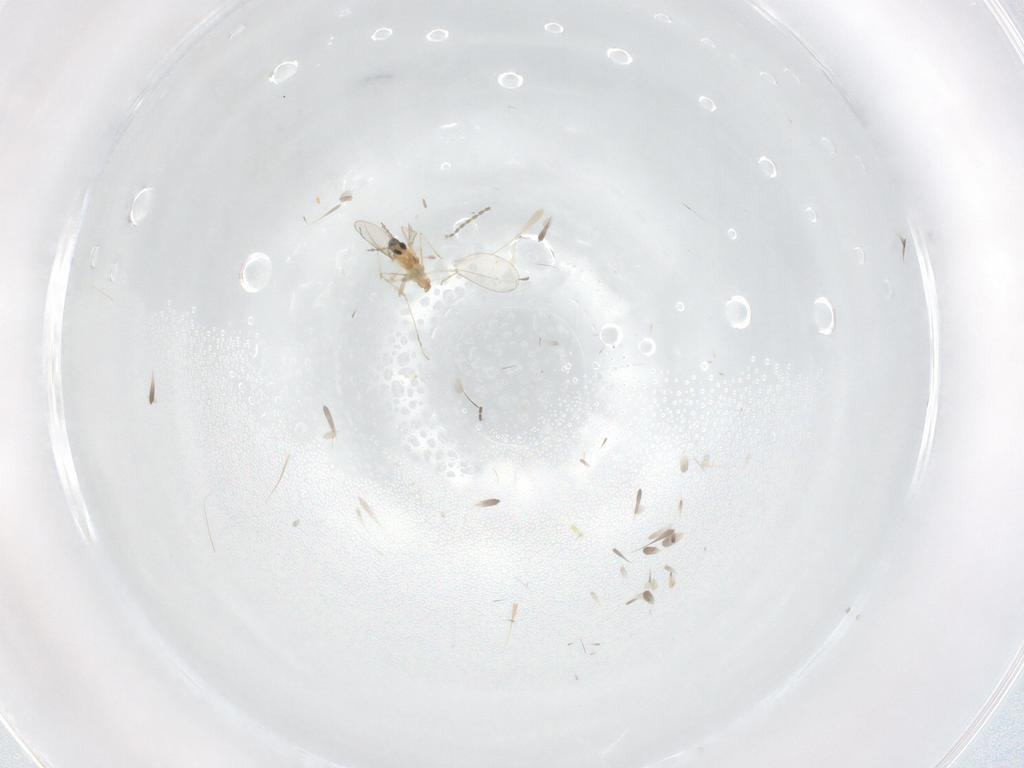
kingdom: Animalia
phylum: Arthropoda
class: Insecta
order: Diptera
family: Cecidomyiidae
